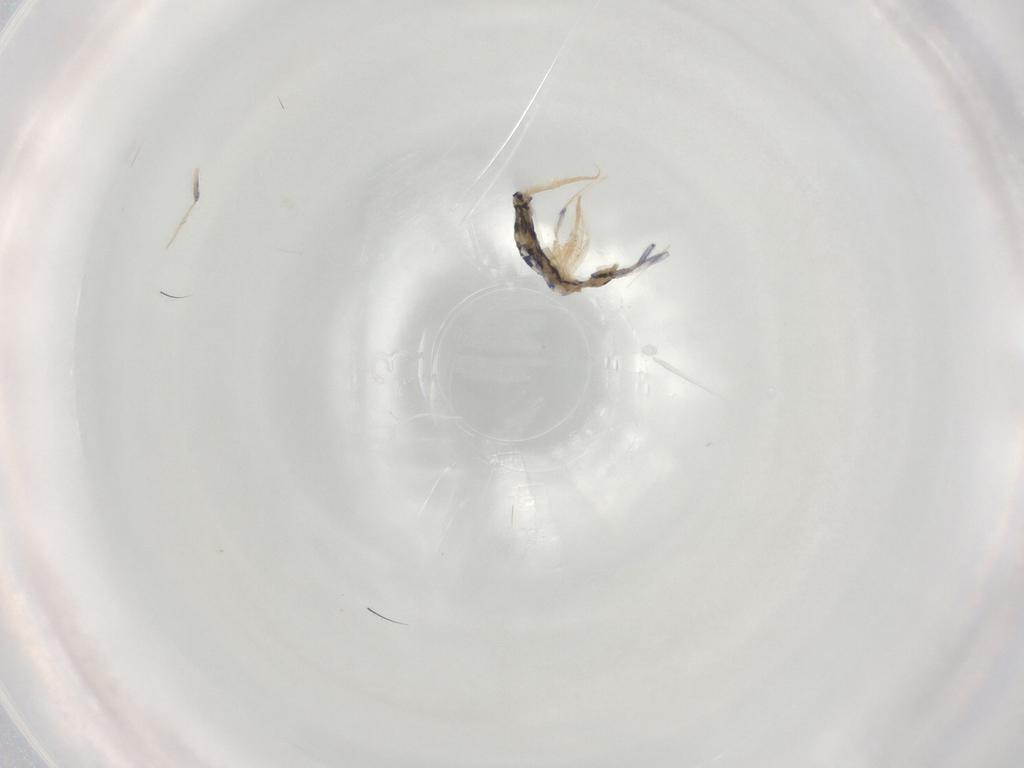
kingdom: Animalia
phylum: Arthropoda
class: Collembola
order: Entomobryomorpha
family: Entomobryidae
